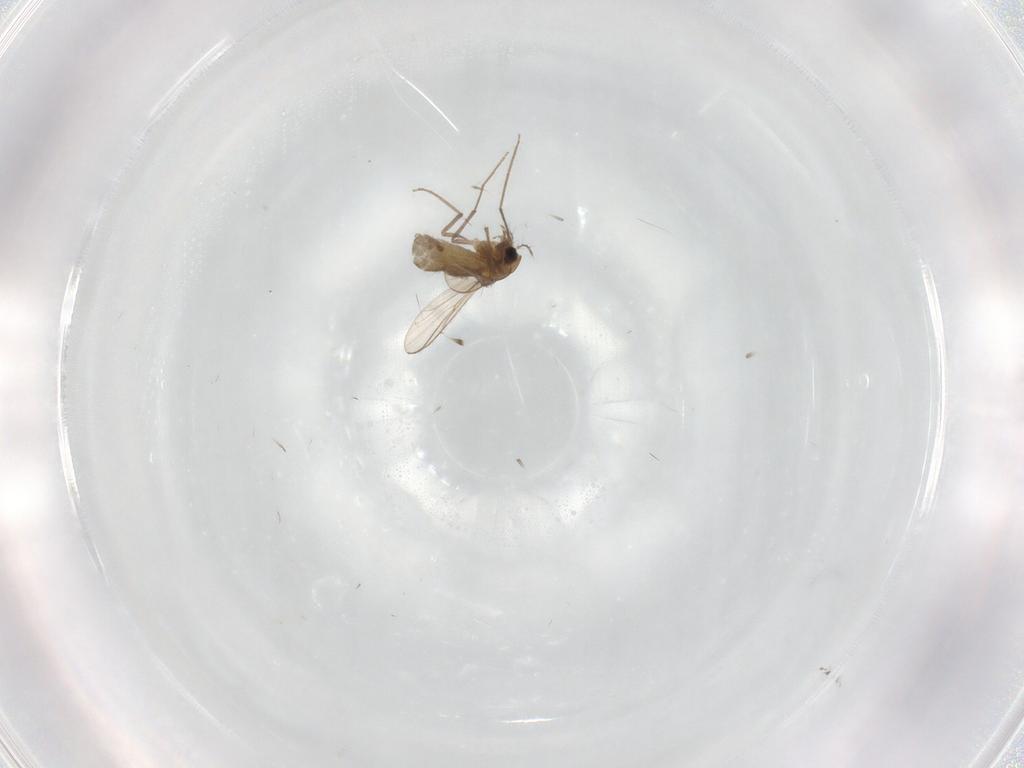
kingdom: Animalia
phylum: Arthropoda
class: Insecta
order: Diptera
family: Chironomidae
